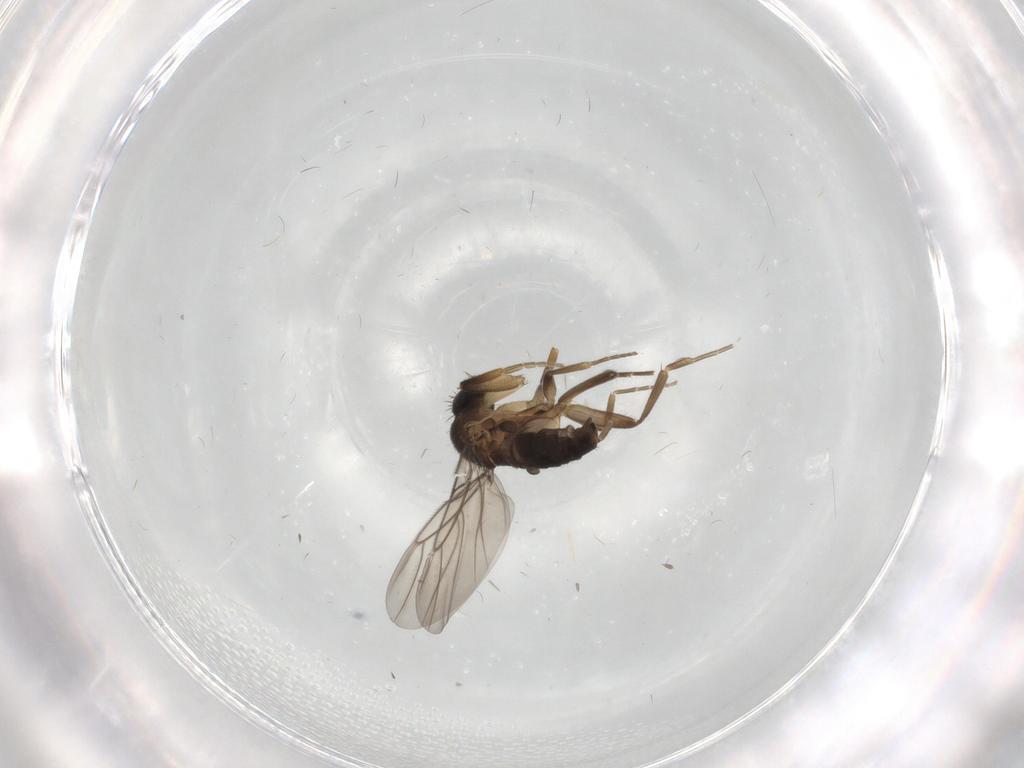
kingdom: Animalia
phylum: Arthropoda
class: Insecta
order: Diptera
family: Phoridae
